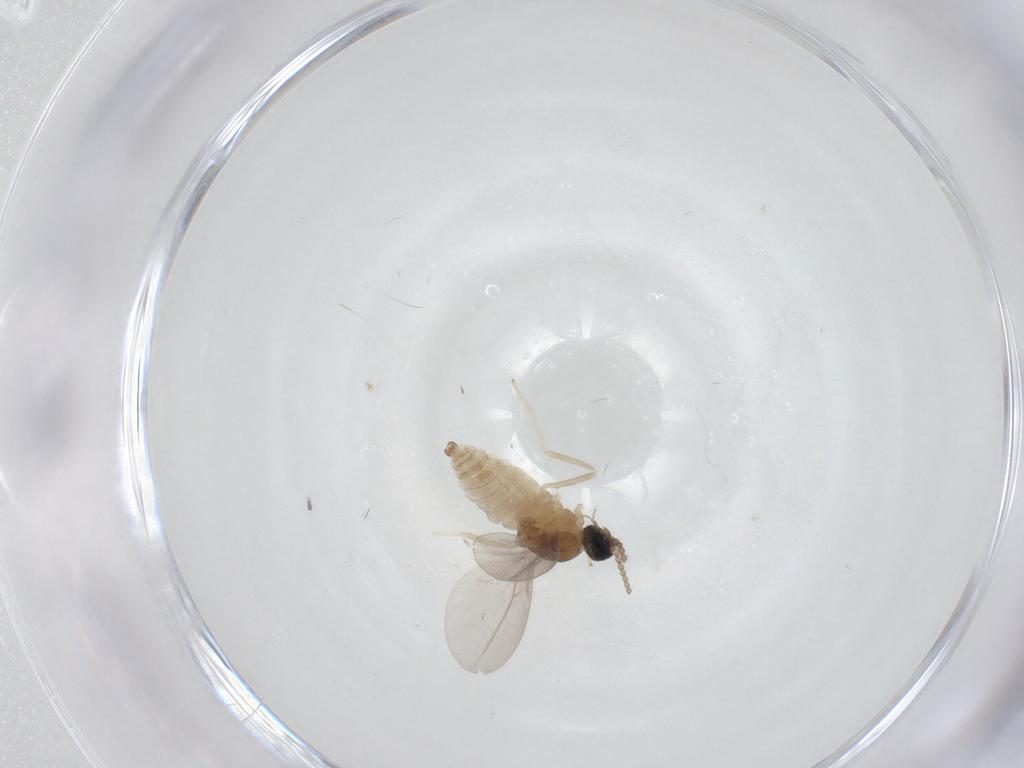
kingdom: Animalia
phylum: Arthropoda
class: Insecta
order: Diptera
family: Cecidomyiidae
